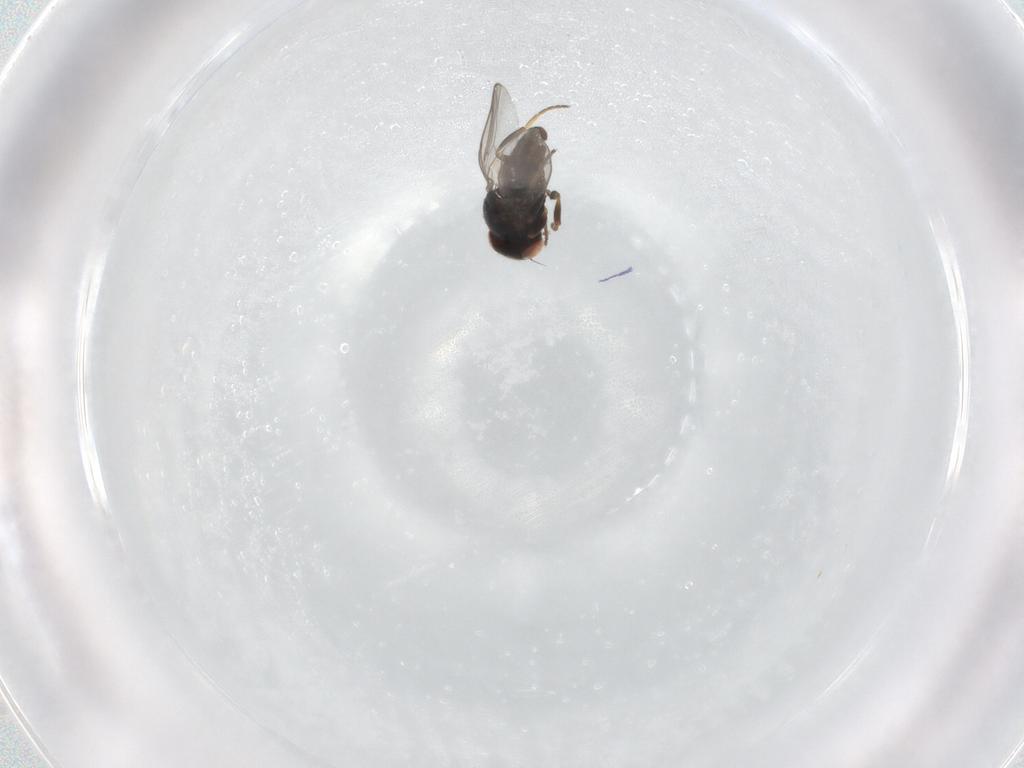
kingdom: Animalia
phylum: Arthropoda
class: Insecta
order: Diptera
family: Chloropidae
